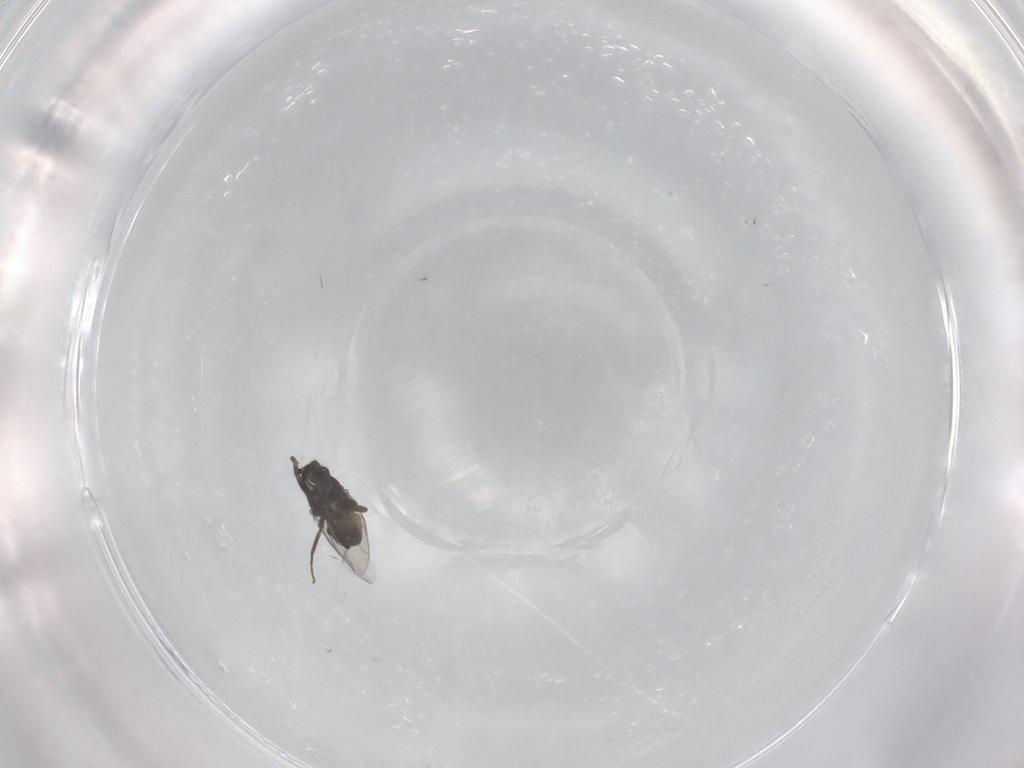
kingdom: Animalia
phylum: Arthropoda
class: Insecta
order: Diptera
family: Sphaeroceridae
